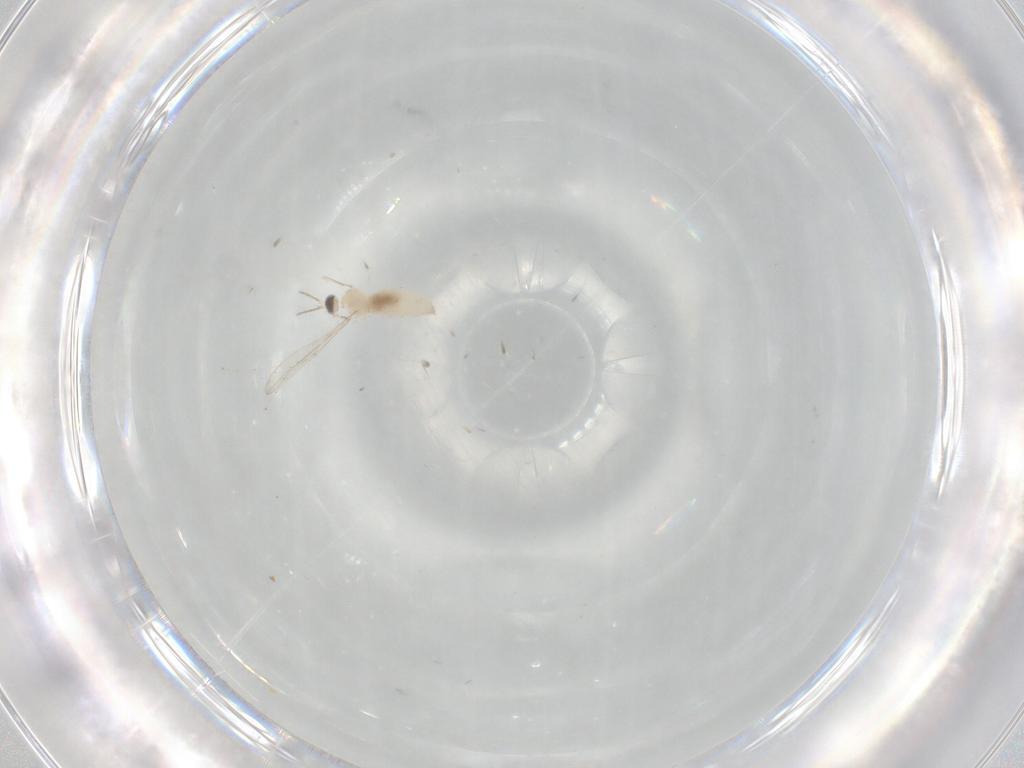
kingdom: Animalia
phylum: Arthropoda
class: Insecta
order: Diptera
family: Cecidomyiidae
